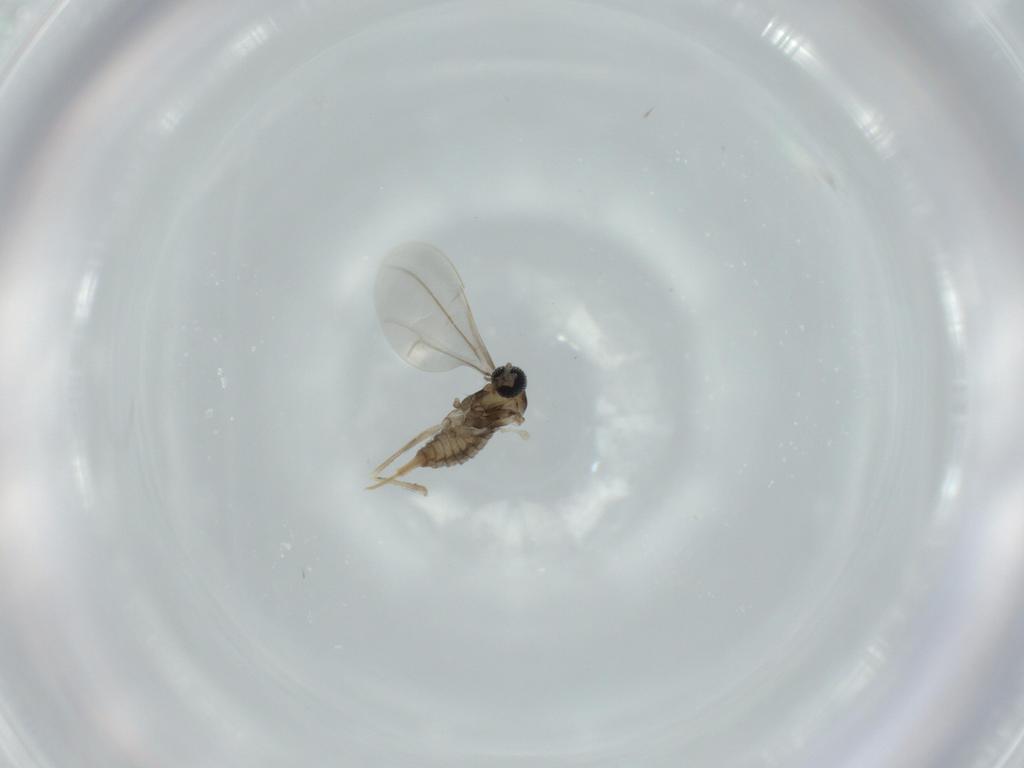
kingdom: Animalia
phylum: Arthropoda
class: Insecta
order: Diptera
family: Cecidomyiidae
